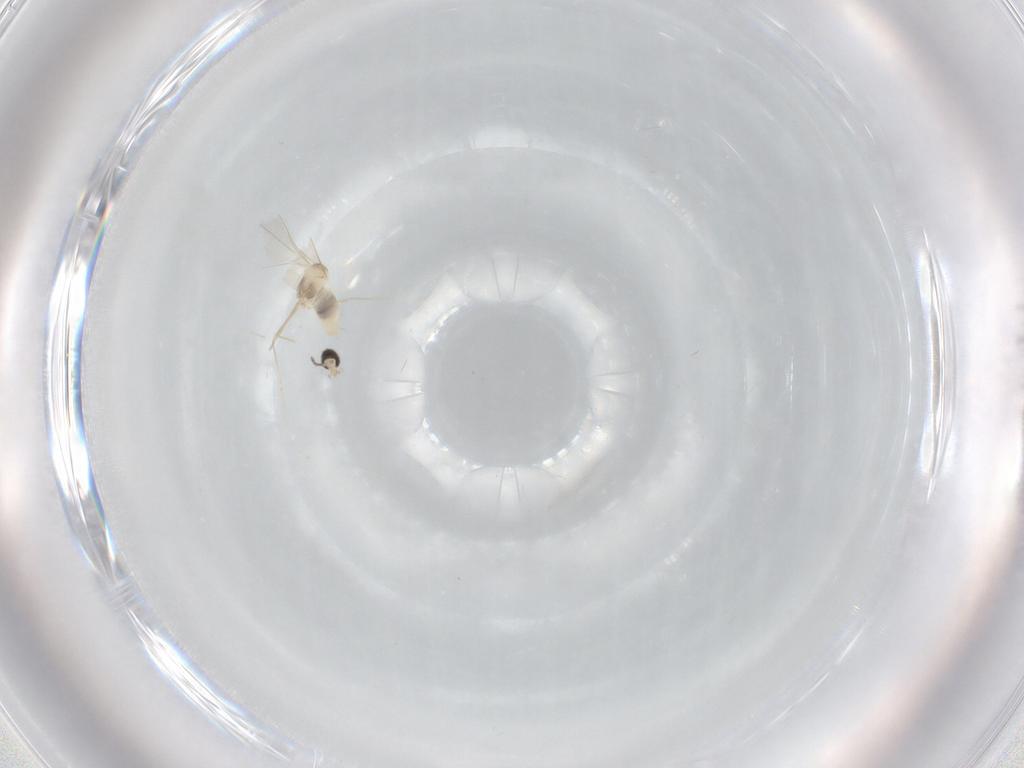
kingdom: Animalia
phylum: Arthropoda
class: Insecta
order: Diptera
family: Cecidomyiidae
